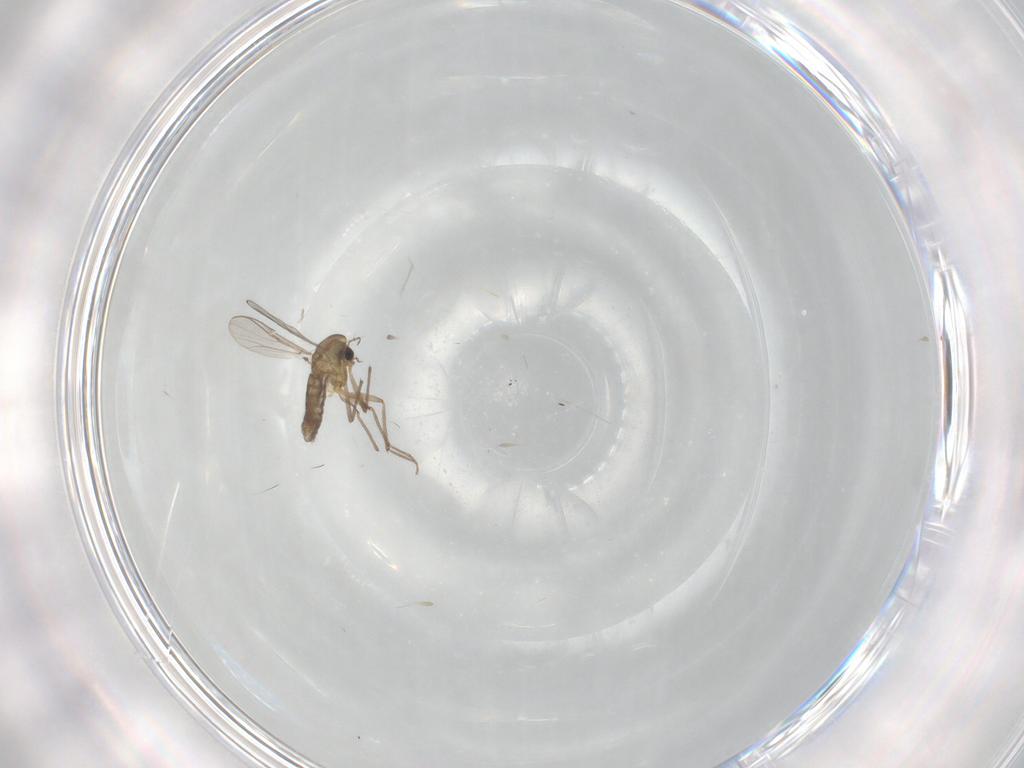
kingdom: Animalia
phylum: Arthropoda
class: Insecta
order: Diptera
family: Chironomidae
